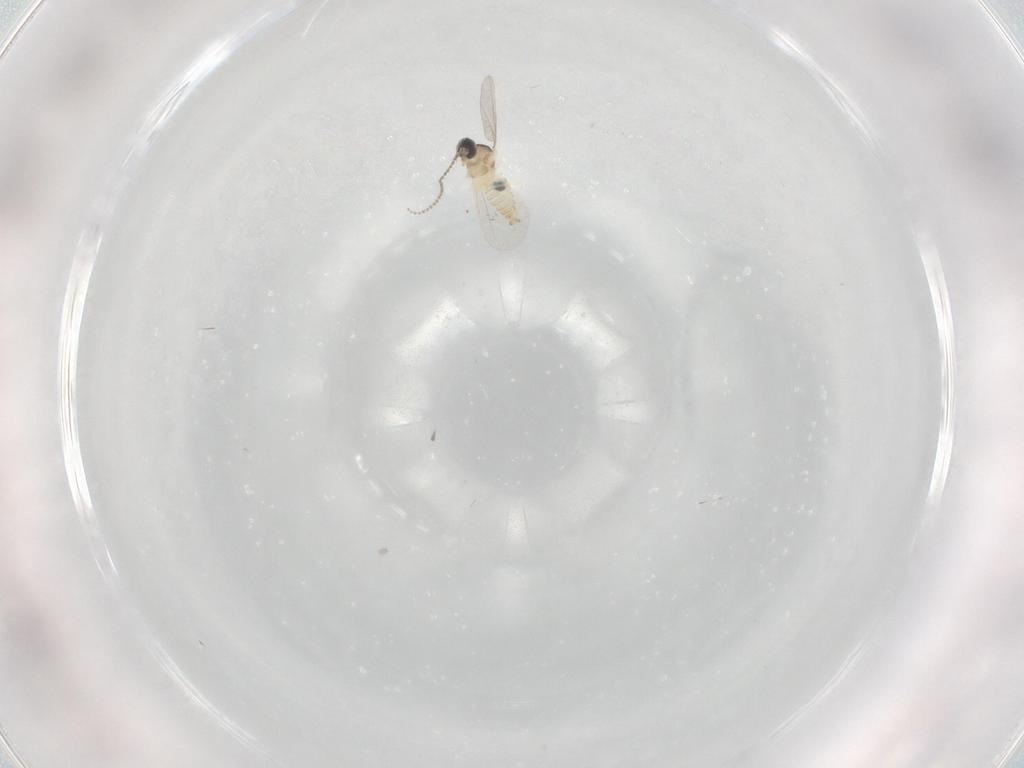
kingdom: Animalia
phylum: Arthropoda
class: Insecta
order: Diptera
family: Cecidomyiidae
